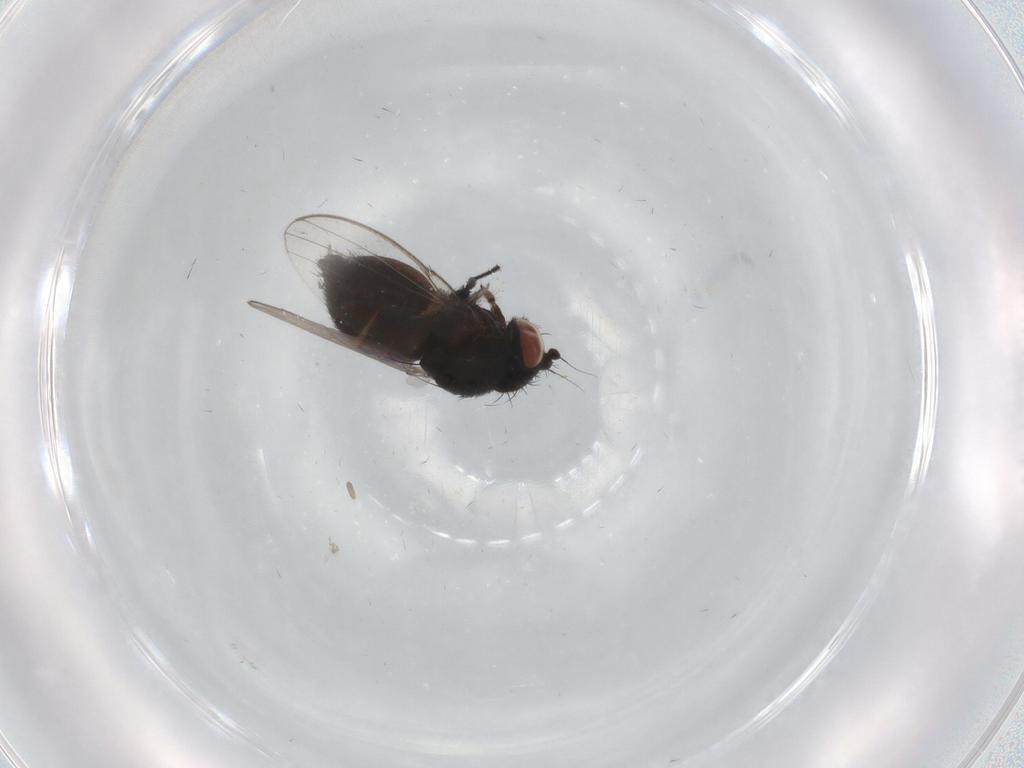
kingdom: Animalia
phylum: Arthropoda
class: Insecta
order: Diptera
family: Cecidomyiidae
